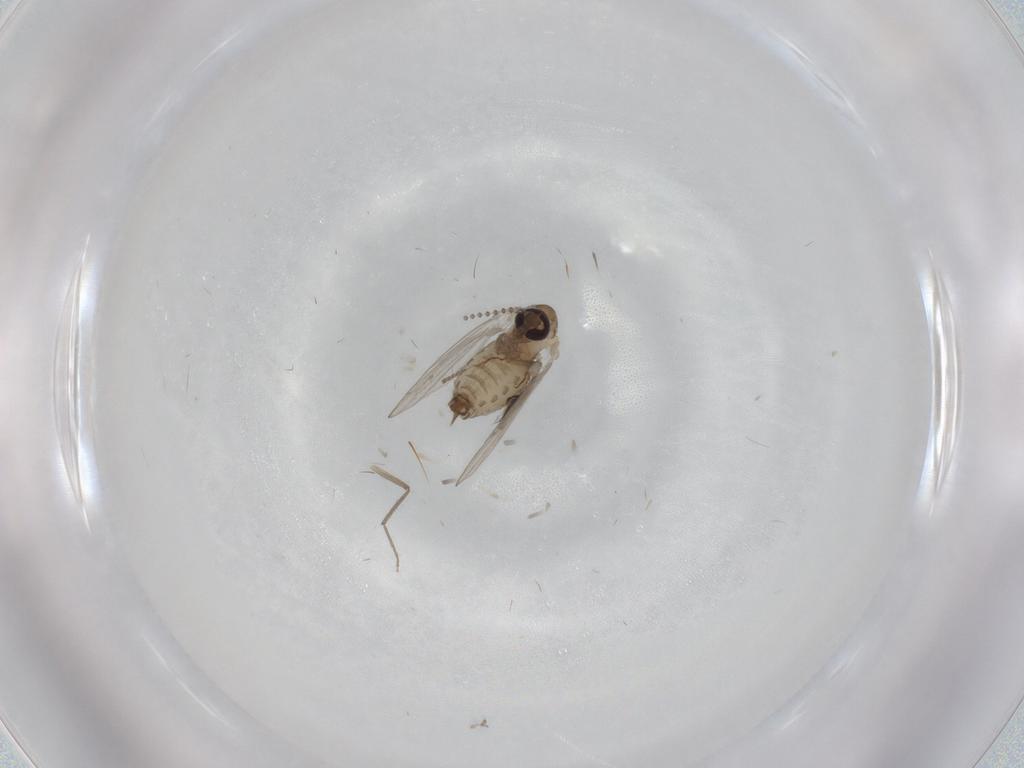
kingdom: Animalia
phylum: Arthropoda
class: Insecta
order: Diptera
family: Psychodidae
